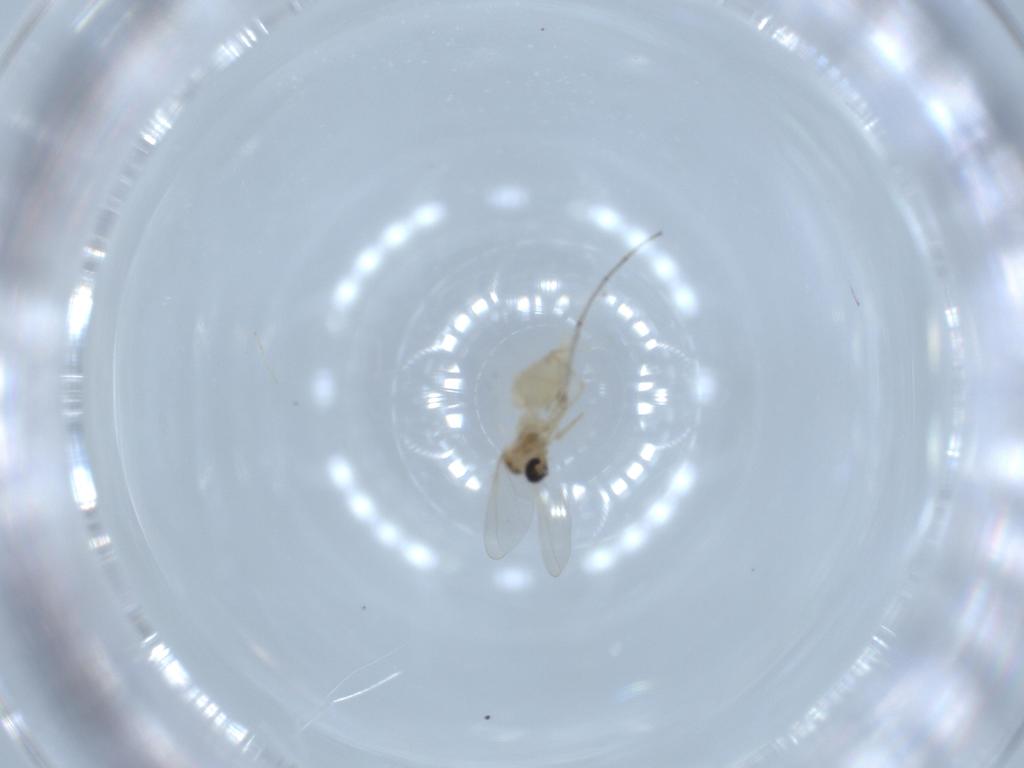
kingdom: Animalia
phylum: Arthropoda
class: Insecta
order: Diptera
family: Cecidomyiidae
